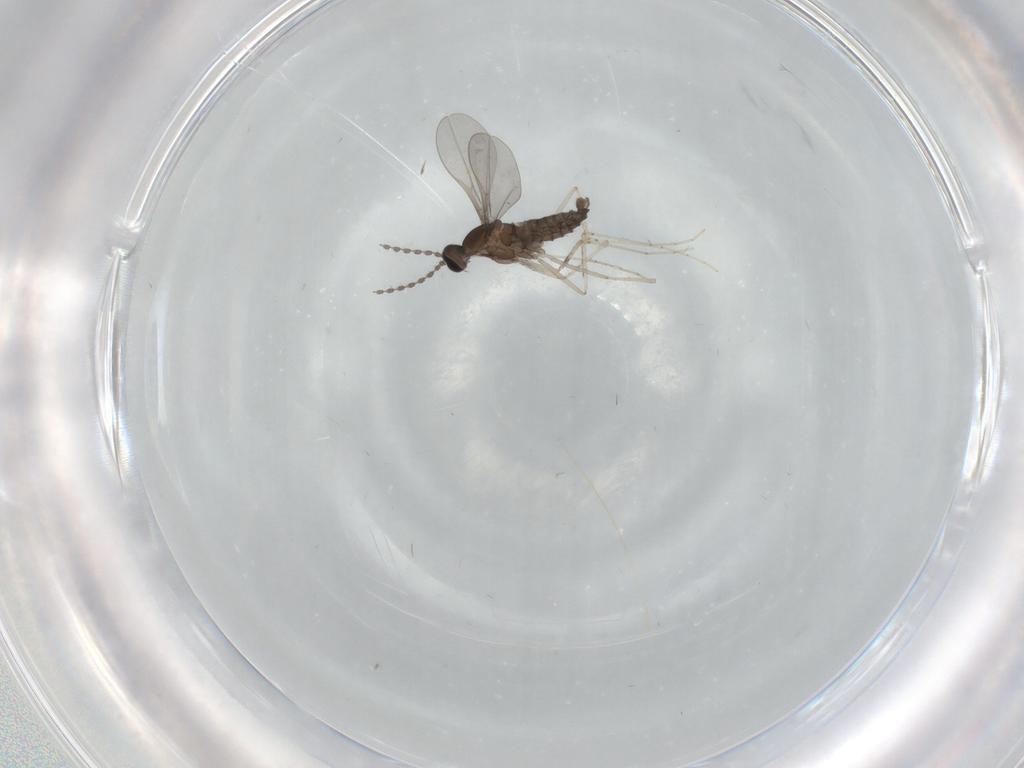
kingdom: Animalia
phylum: Arthropoda
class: Insecta
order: Diptera
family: Cecidomyiidae
